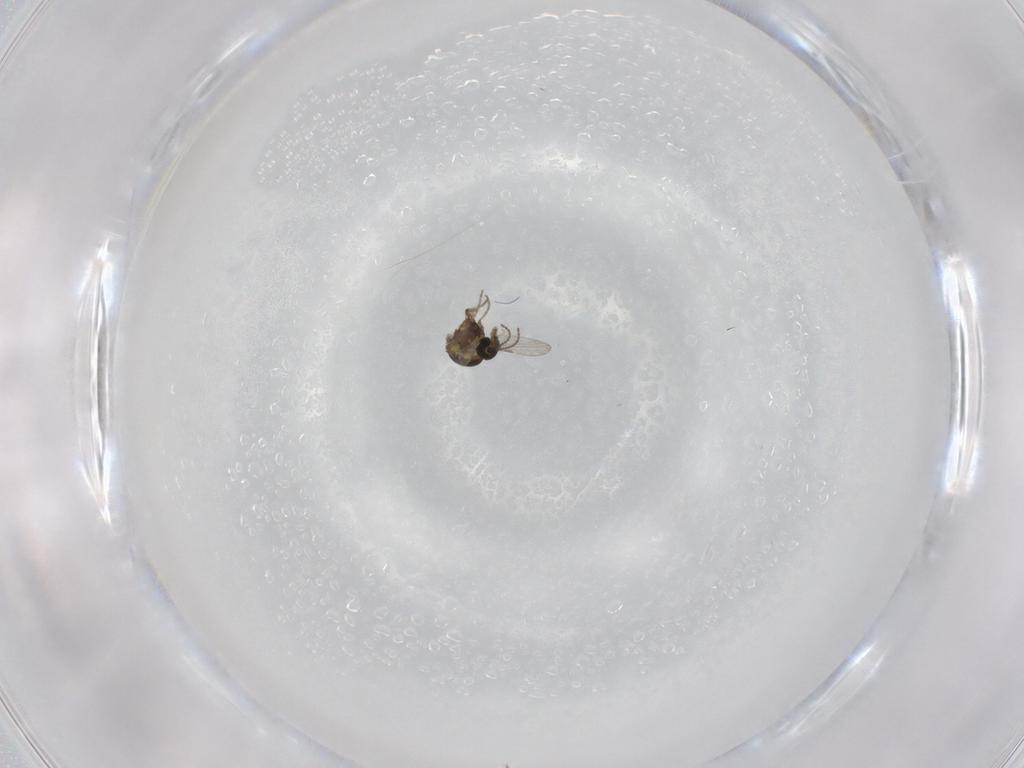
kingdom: Animalia
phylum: Arthropoda
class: Insecta
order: Diptera
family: Ceratopogonidae
